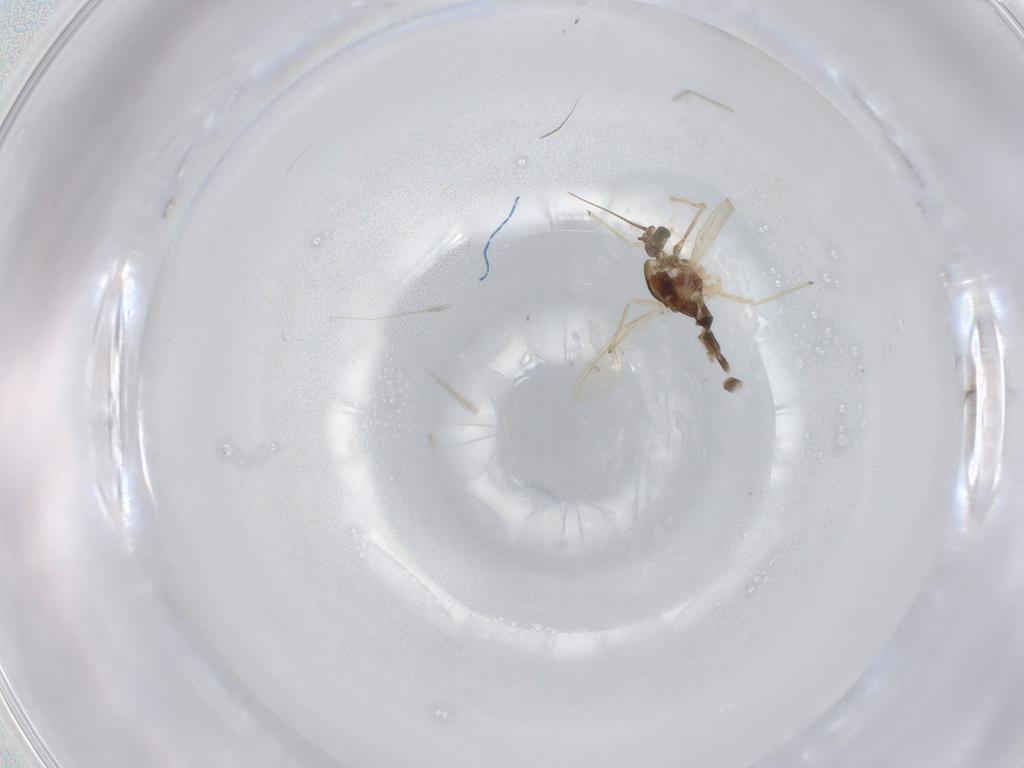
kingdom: Animalia
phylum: Arthropoda
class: Insecta
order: Diptera
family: Chironomidae
